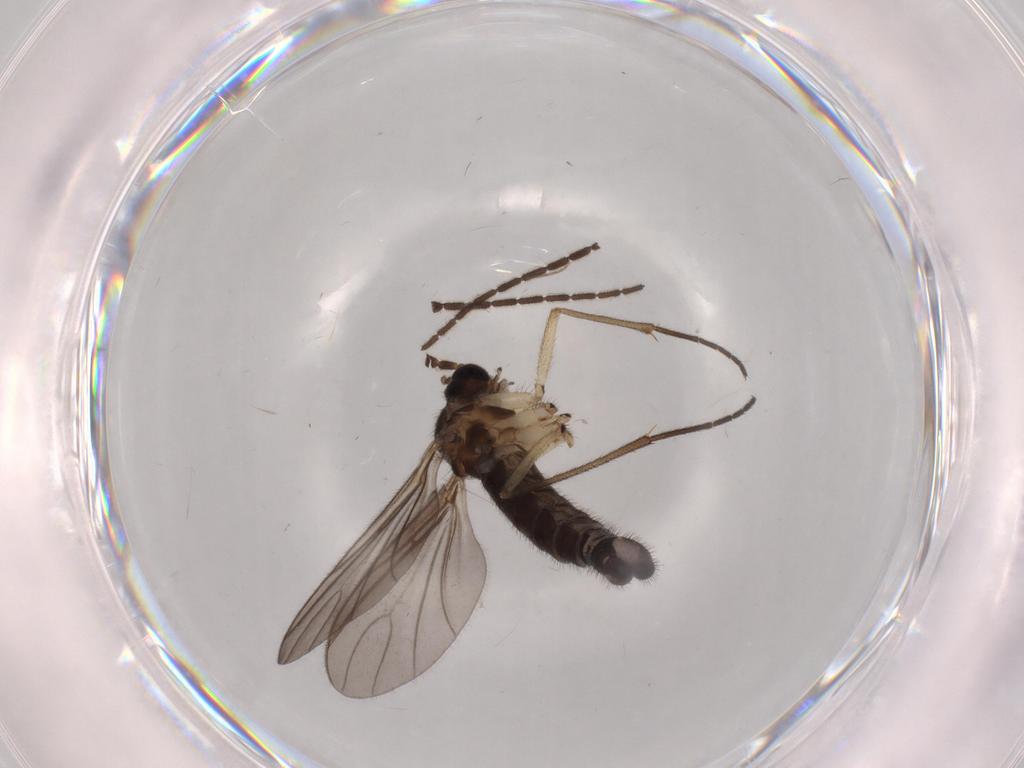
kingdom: Animalia
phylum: Arthropoda
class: Insecta
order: Diptera
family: Sciaridae
